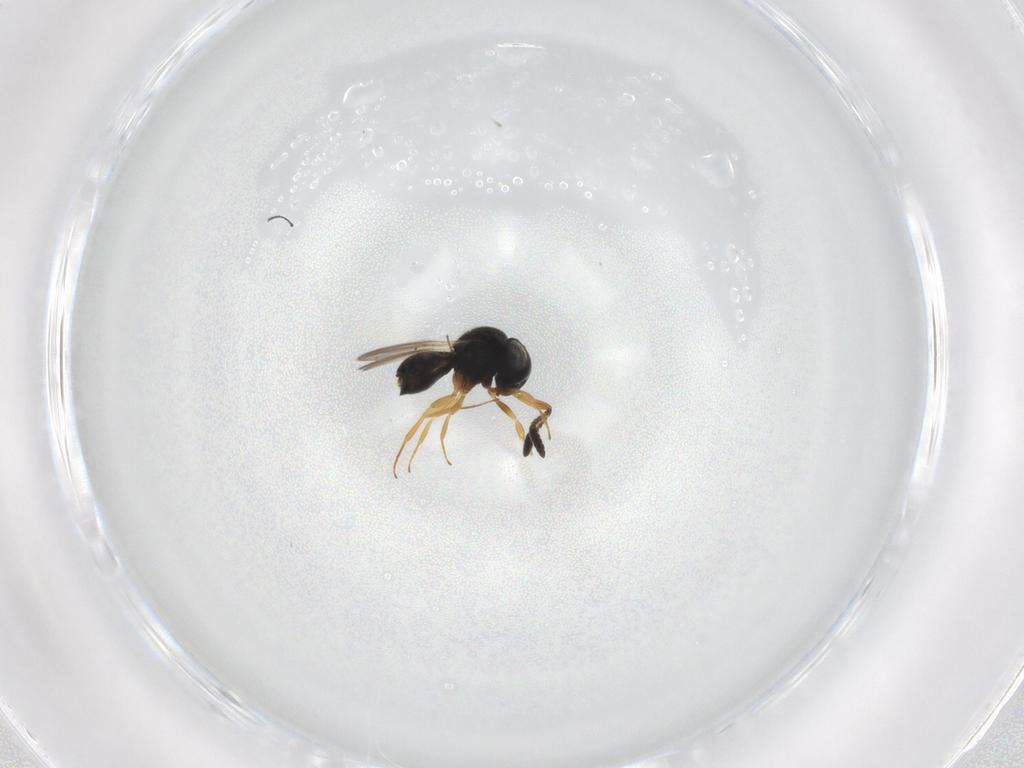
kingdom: Animalia
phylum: Arthropoda
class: Insecta
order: Hymenoptera
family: Scelionidae
